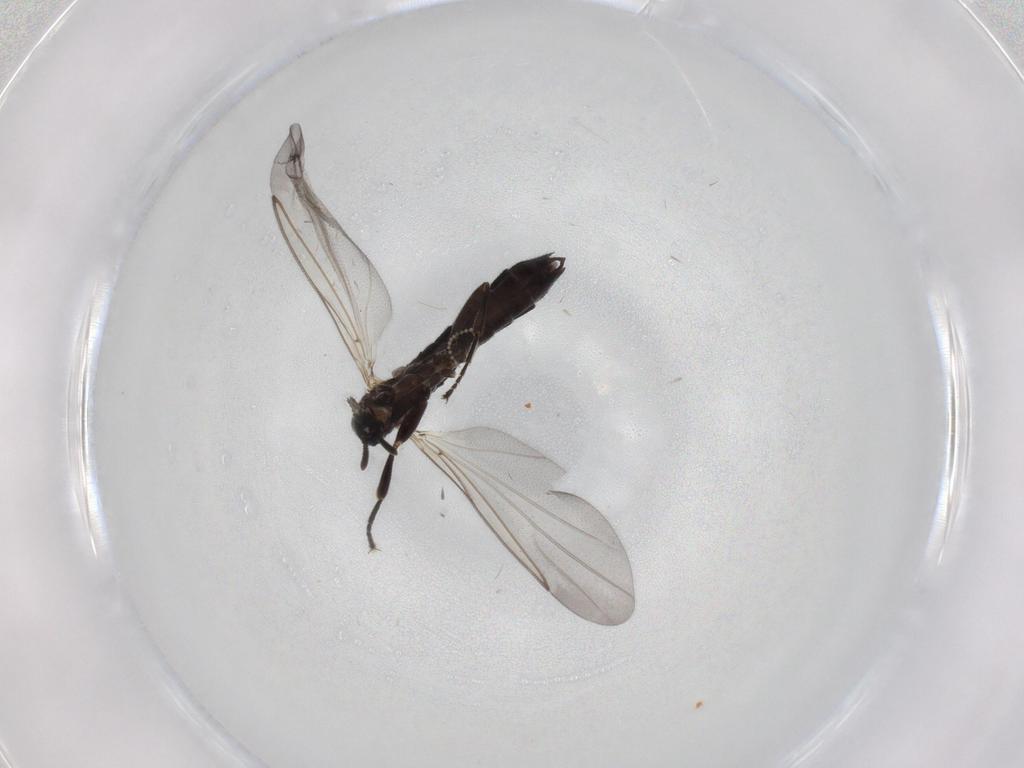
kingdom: Animalia
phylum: Arthropoda
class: Insecta
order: Diptera
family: Scatopsidae
